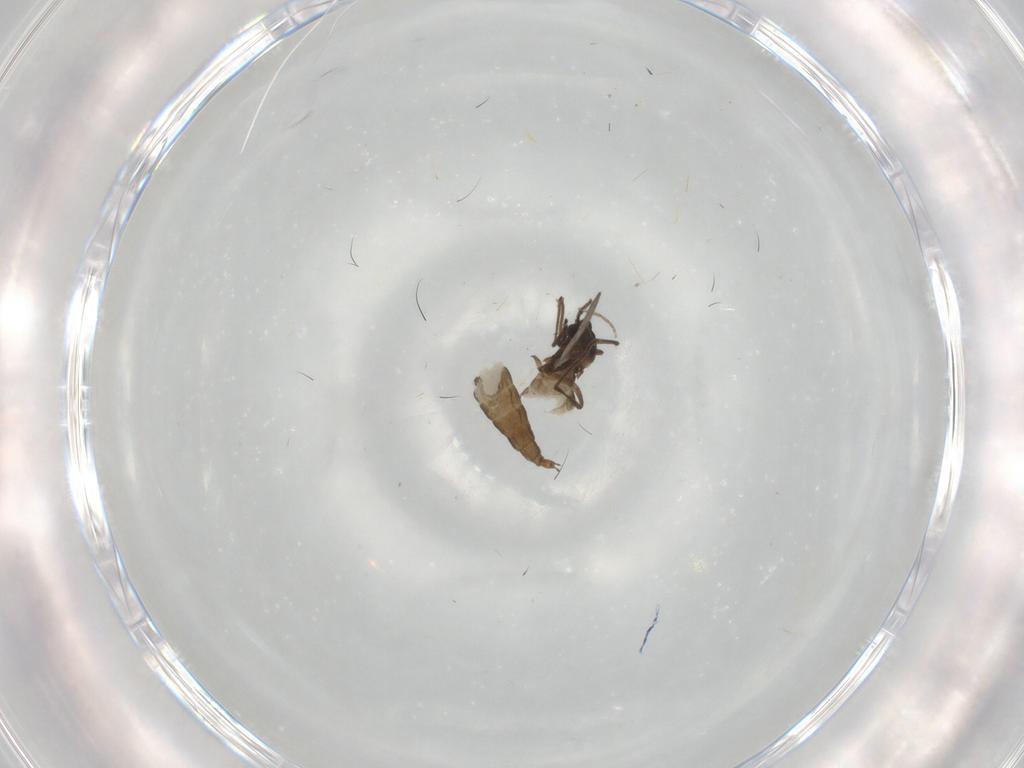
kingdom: Animalia
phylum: Arthropoda
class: Insecta
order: Diptera
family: Cecidomyiidae
